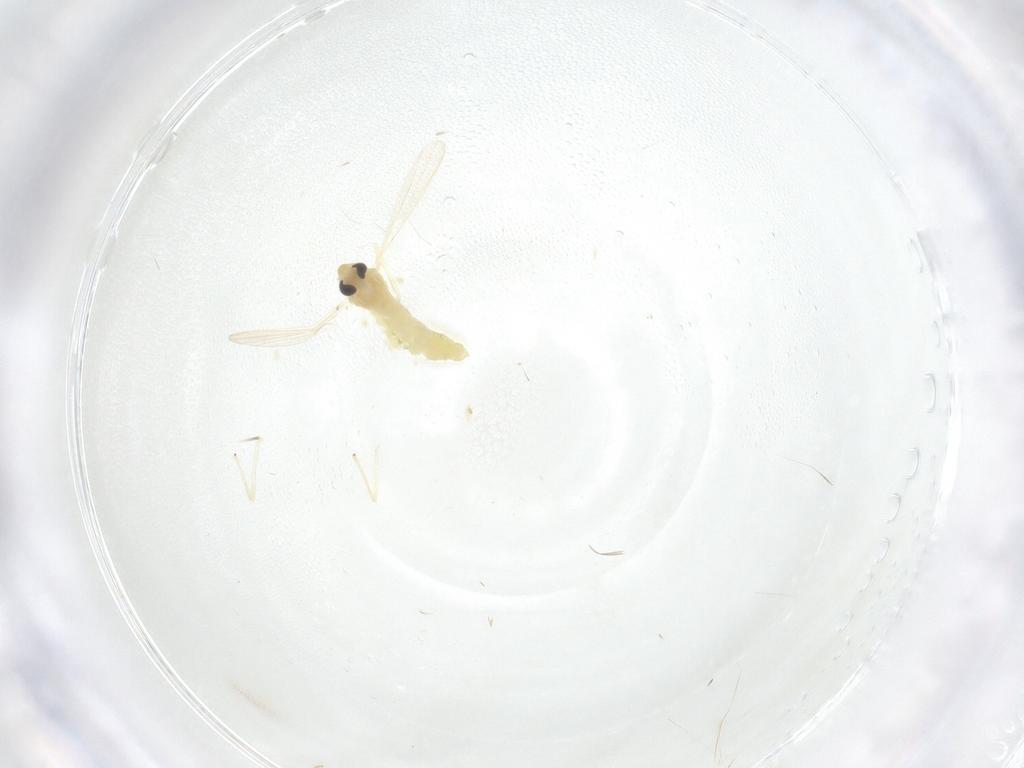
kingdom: Animalia
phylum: Arthropoda
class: Insecta
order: Diptera
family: Chironomidae
